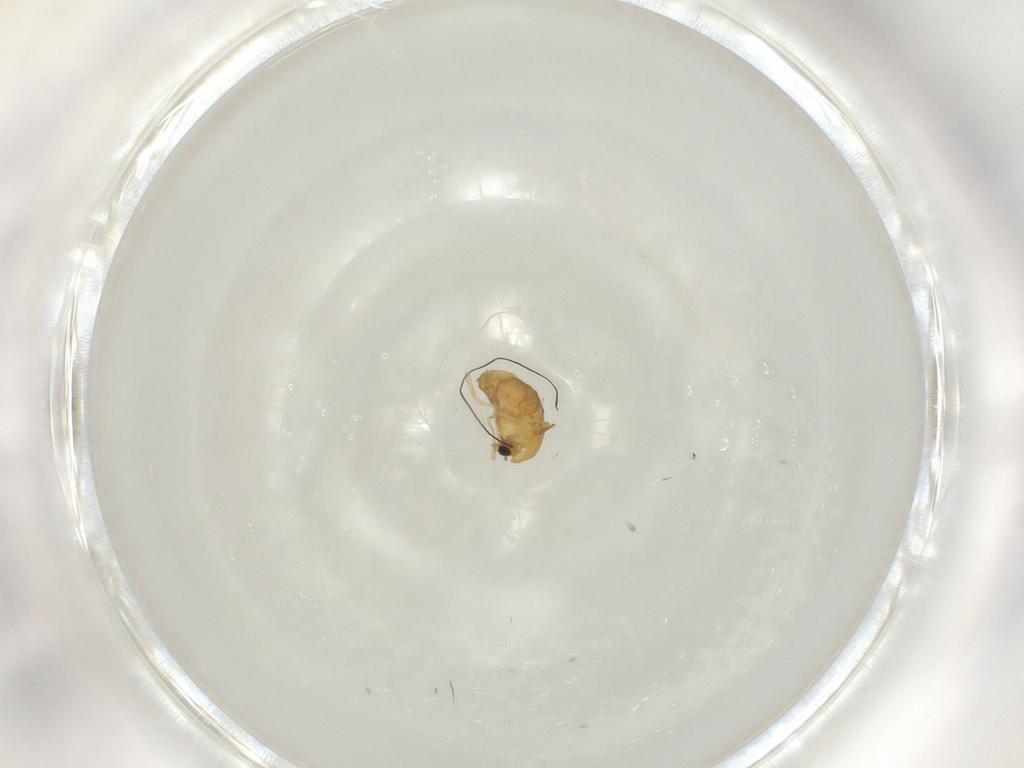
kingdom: Animalia
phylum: Arthropoda
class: Insecta
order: Diptera
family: Chironomidae
